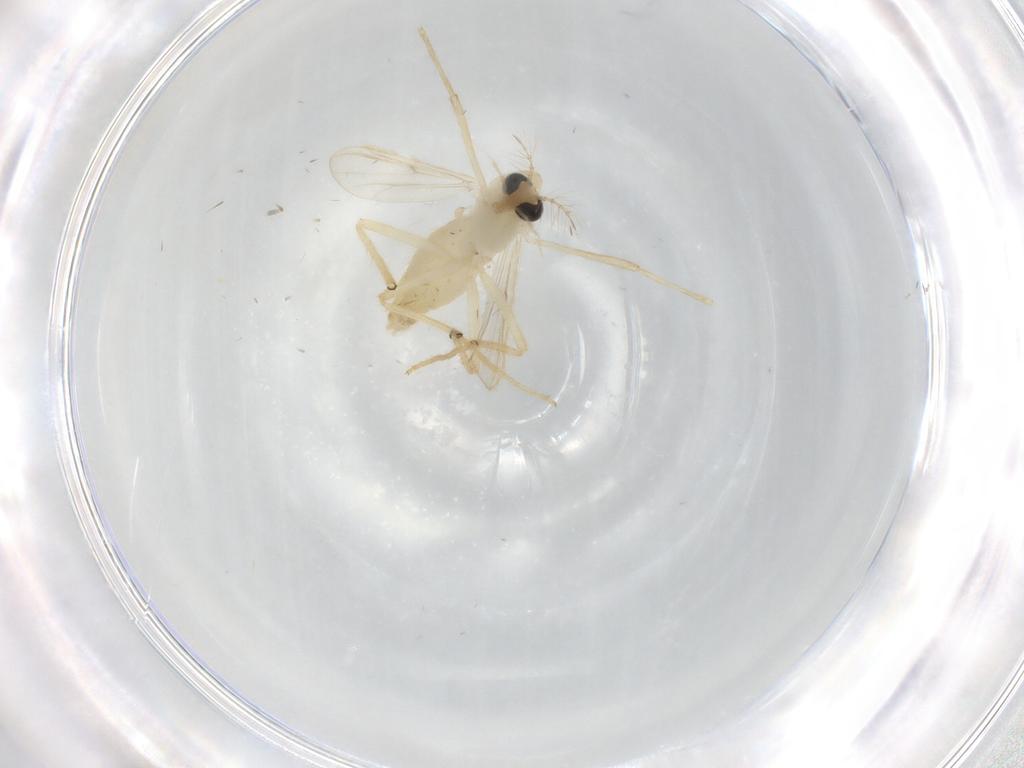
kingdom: Animalia
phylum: Arthropoda
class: Insecta
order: Diptera
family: Chironomidae
